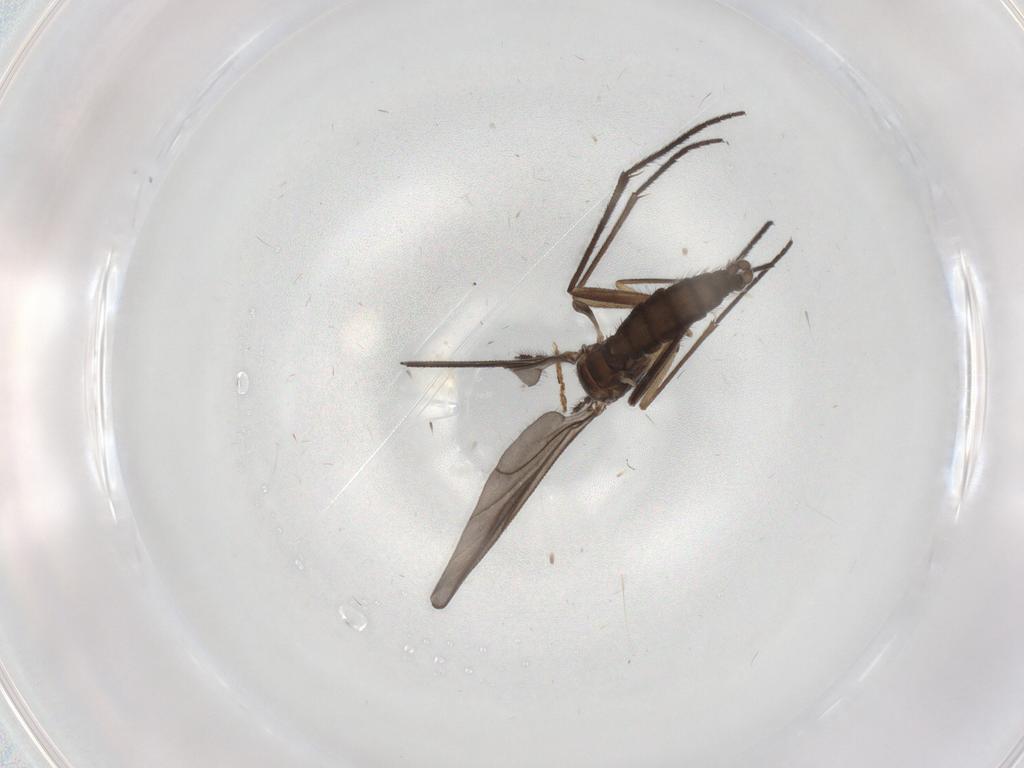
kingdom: Animalia
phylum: Arthropoda
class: Insecta
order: Diptera
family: Sciaridae
